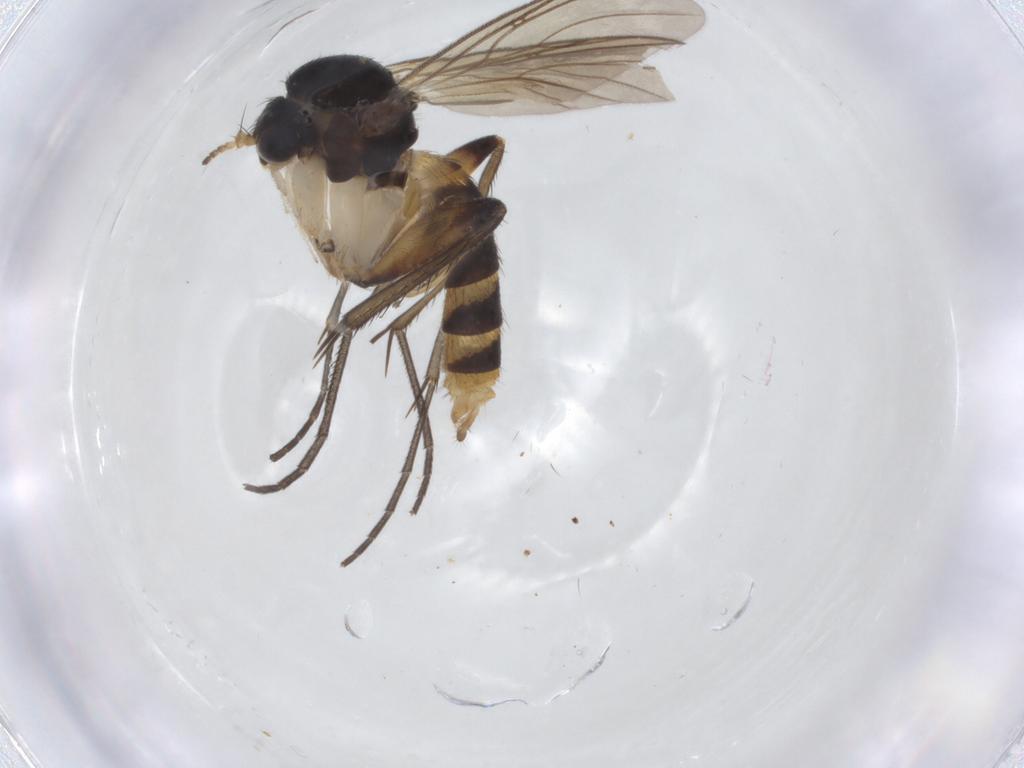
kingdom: Animalia
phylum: Arthropoda
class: Insecta
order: Diptera
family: Mycetophilidae
